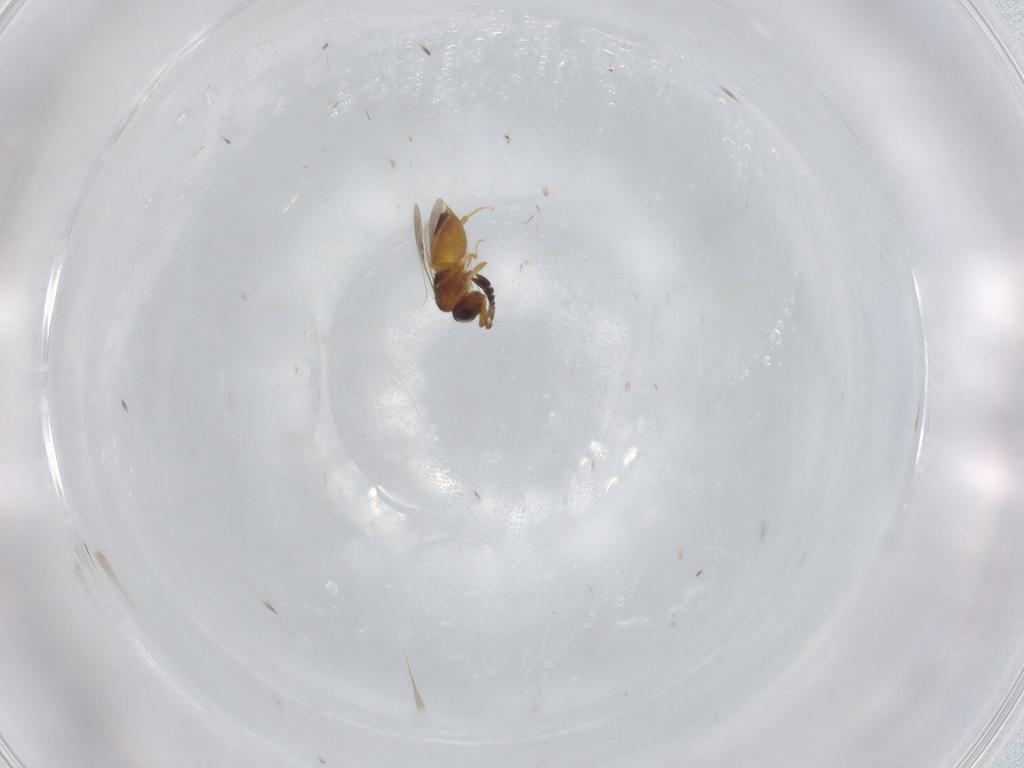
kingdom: Animalia
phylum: Arthropoda
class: Insecta
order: Hymenoptera
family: Ceraphronidae
